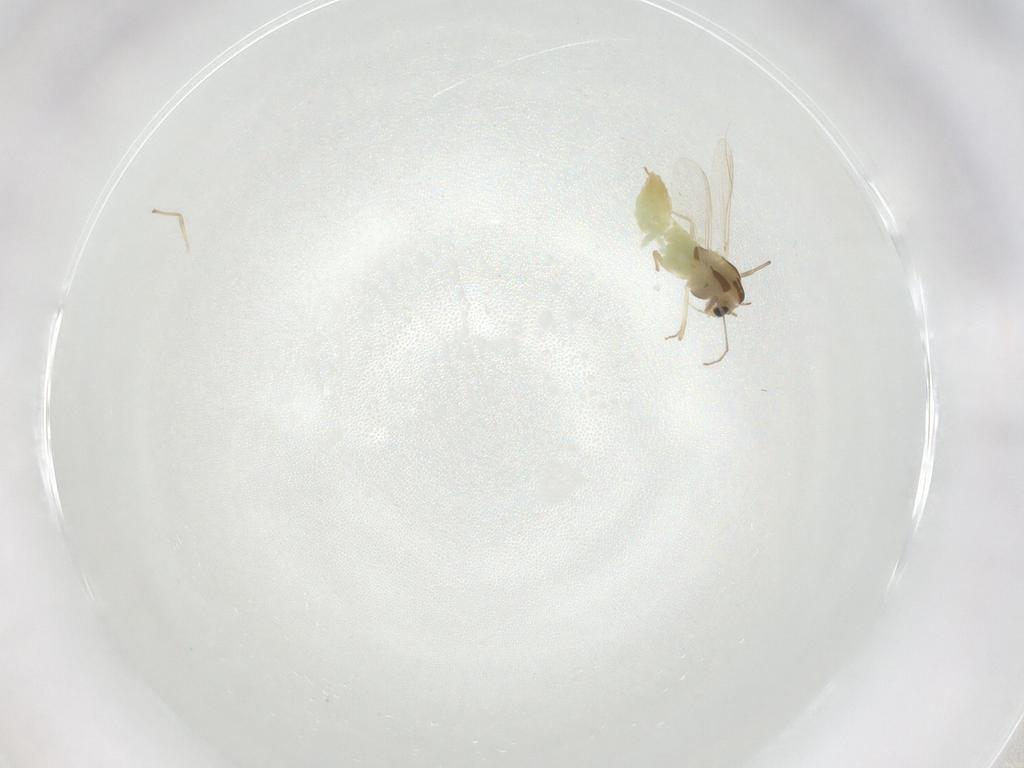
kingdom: Animalia
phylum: Arthropoda
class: Insecta
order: Diptera
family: Chironomidae
